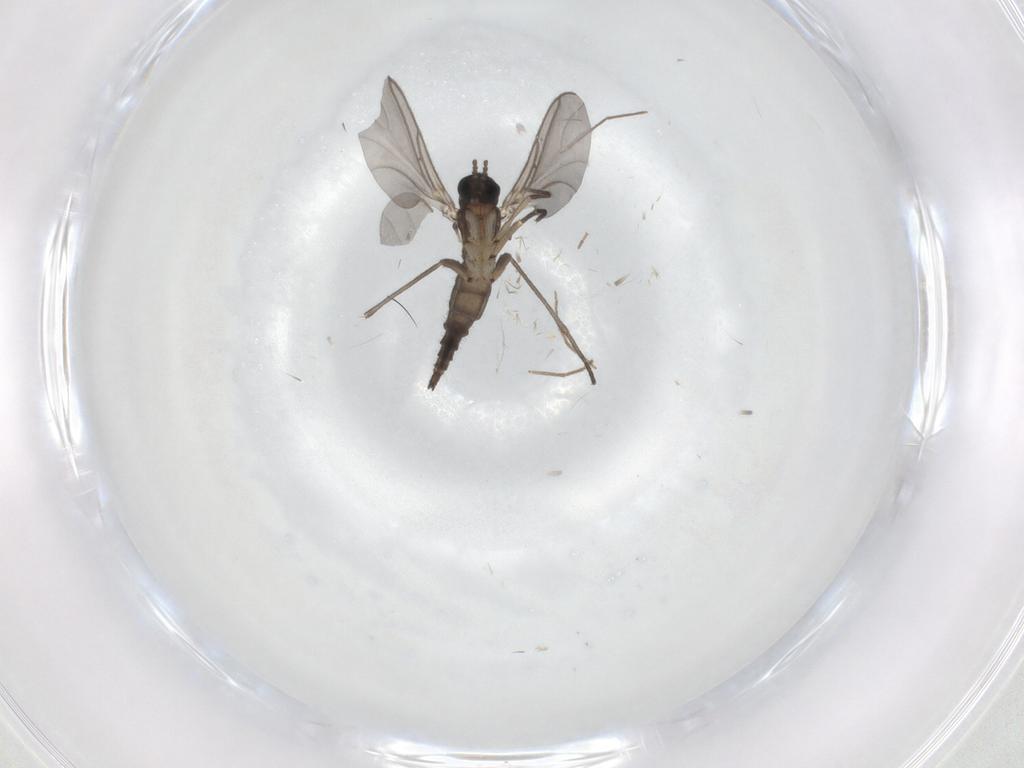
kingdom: Animalia
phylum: Arthropoda
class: Insecta
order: Diptera
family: Sciaridae
